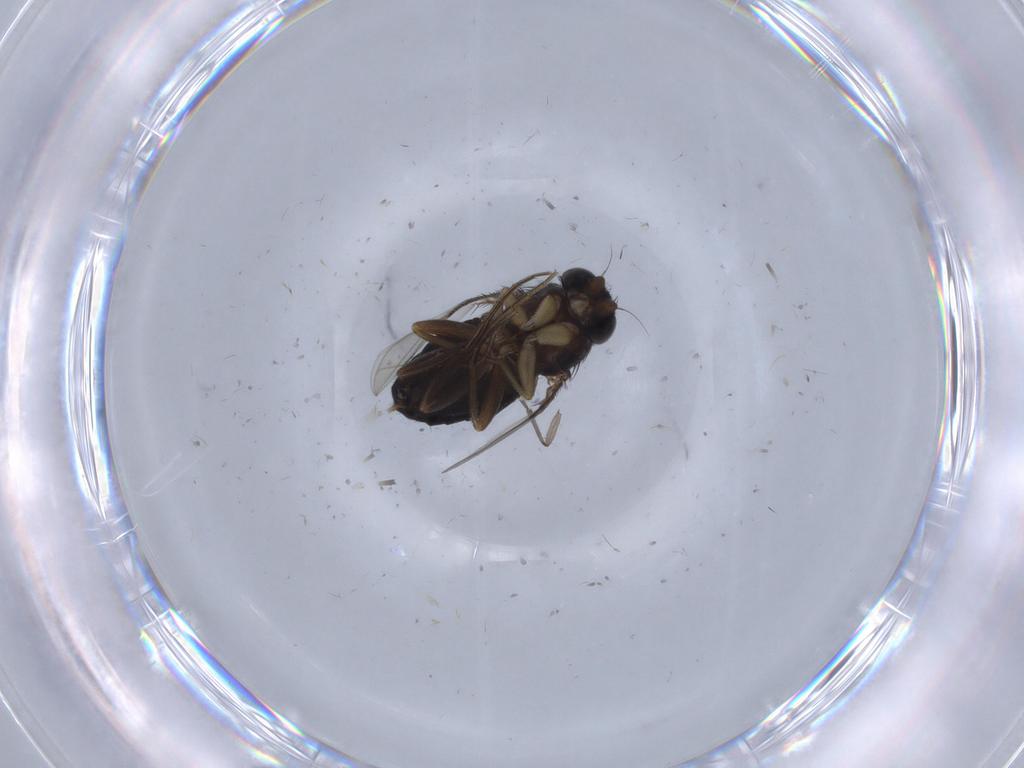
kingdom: Animalia
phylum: Arthropoda
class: Insecta
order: Diptera
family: Phoridae
